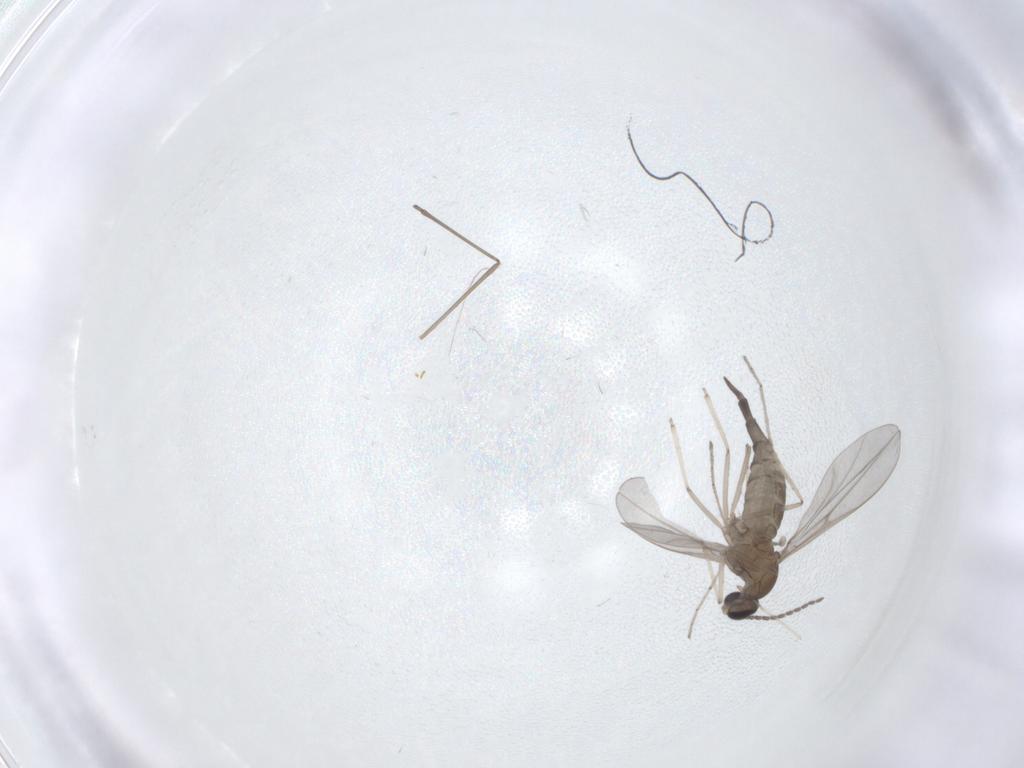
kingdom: Animalia
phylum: Arthropoda
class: Insecta
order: Diptera
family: Cecidomyiidae
